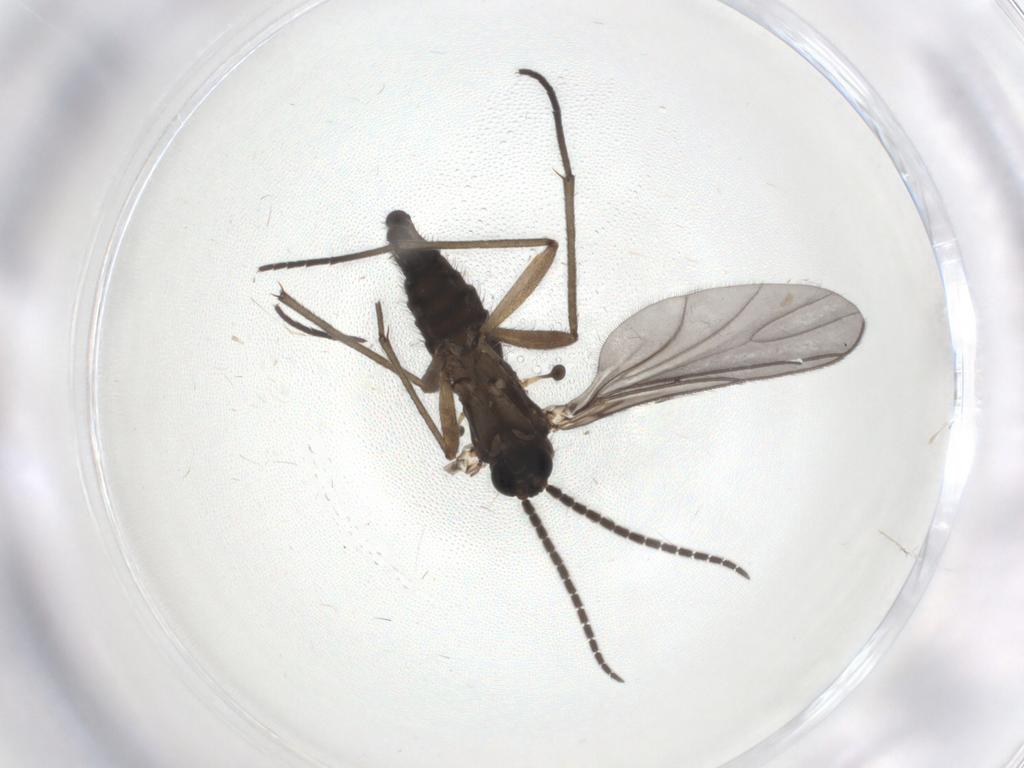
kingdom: Animalia
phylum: Arthropoda
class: Insecta
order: Diptera
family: Sciaridae
